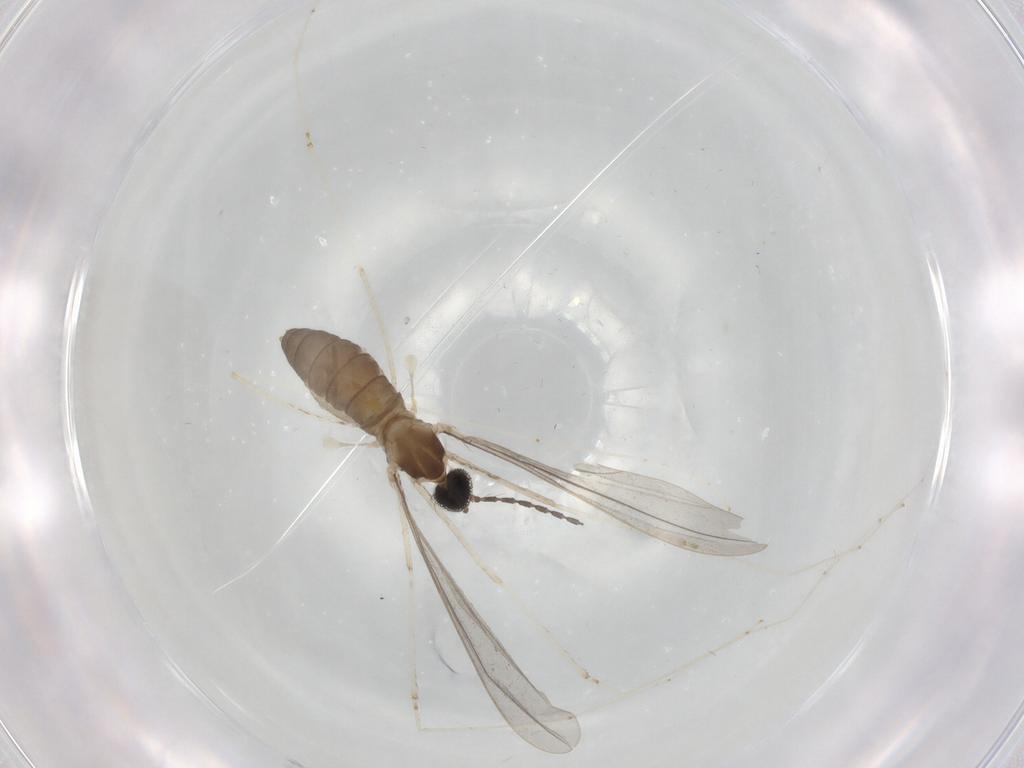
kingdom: Animalia
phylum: Arthropoda
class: Insecta
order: Diptera
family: Cecidomyiidae
